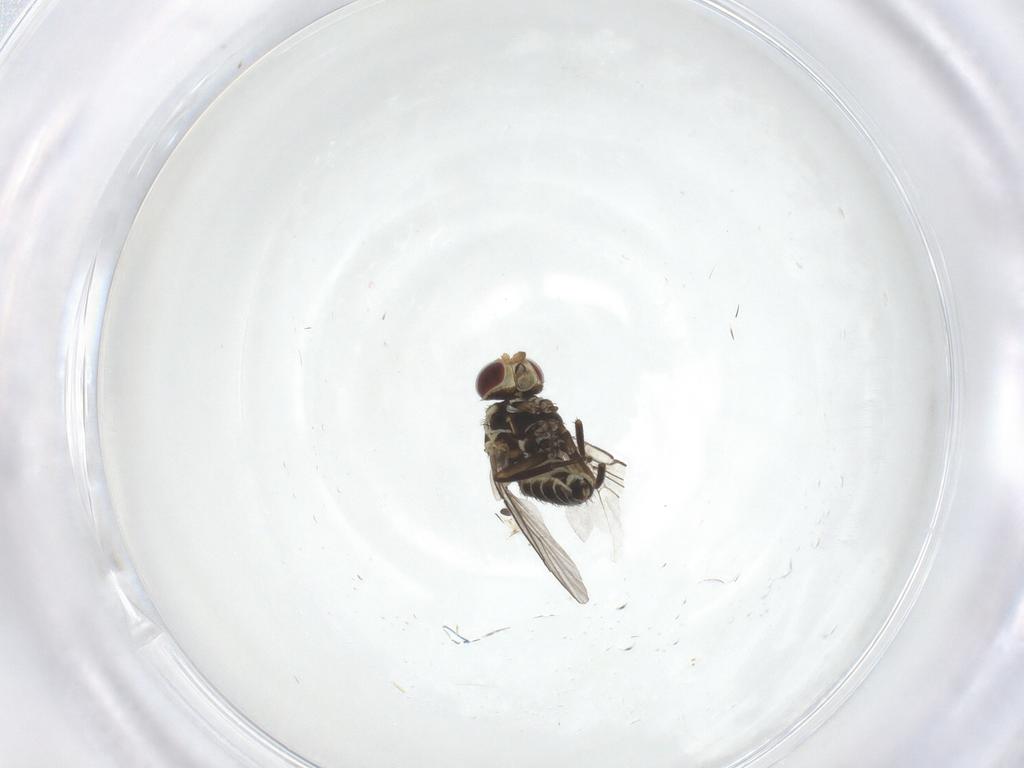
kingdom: Animalia
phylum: Arthropoda
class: Insecta
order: Diptera
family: Agromyzidae
